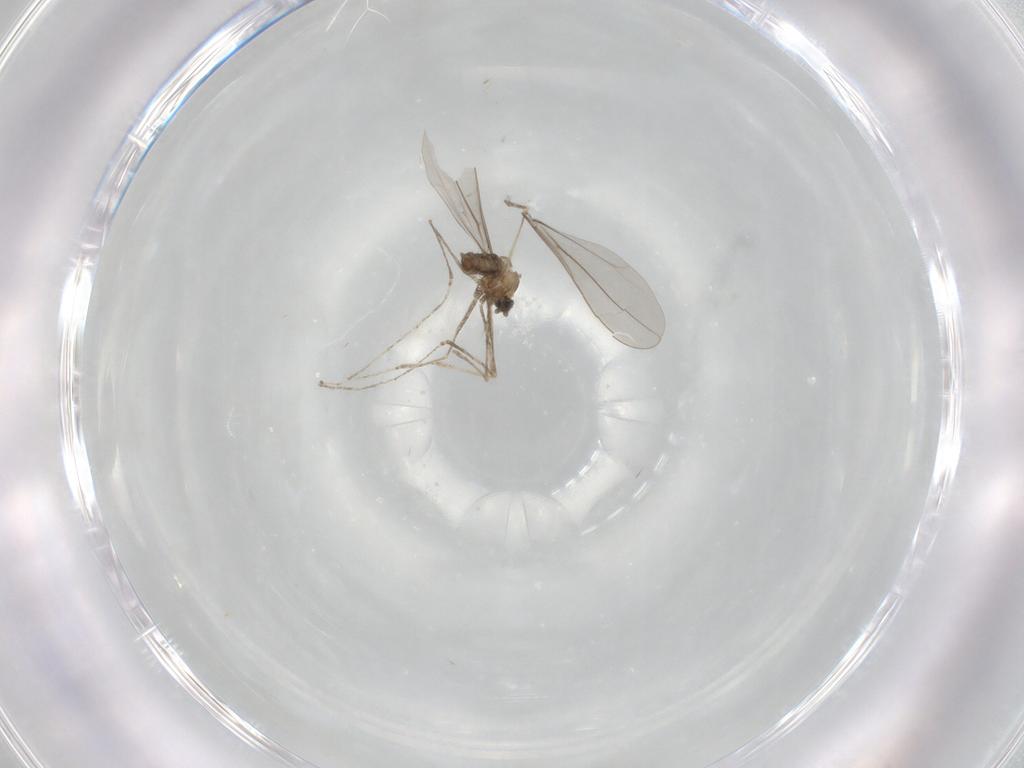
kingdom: Animalia
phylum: Arthropoda
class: Insecta
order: Diptera
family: Cecidomyiidae
